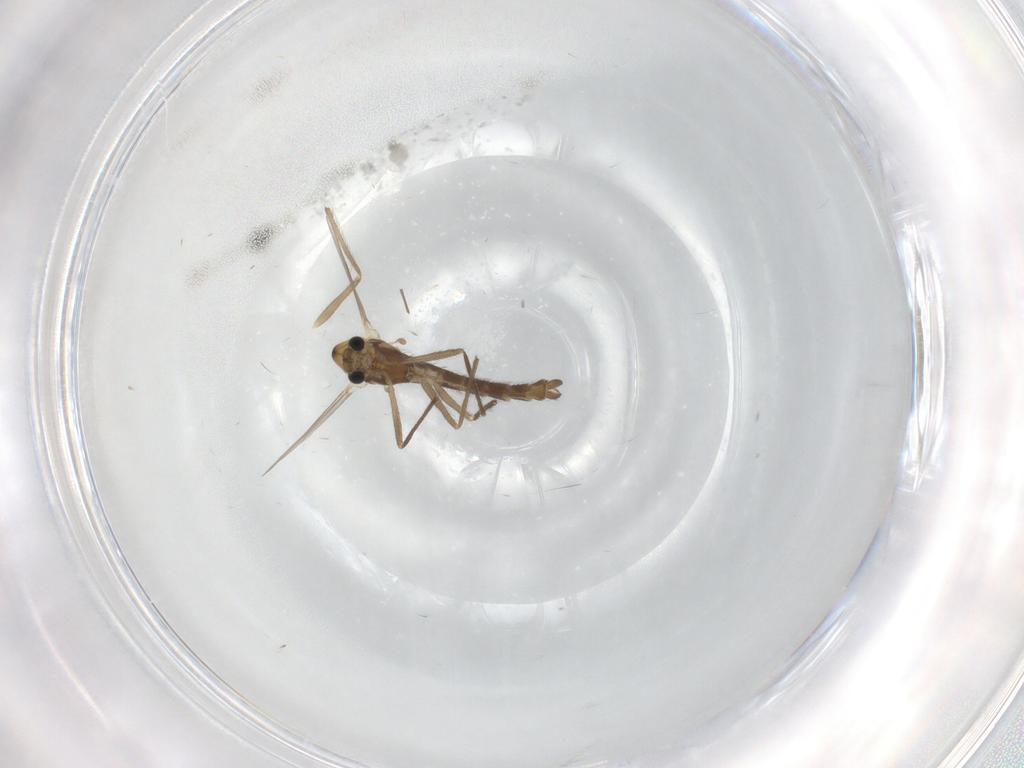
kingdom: Animalia
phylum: Arthropoda
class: Insecta
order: Diptera
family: Chironomidae
